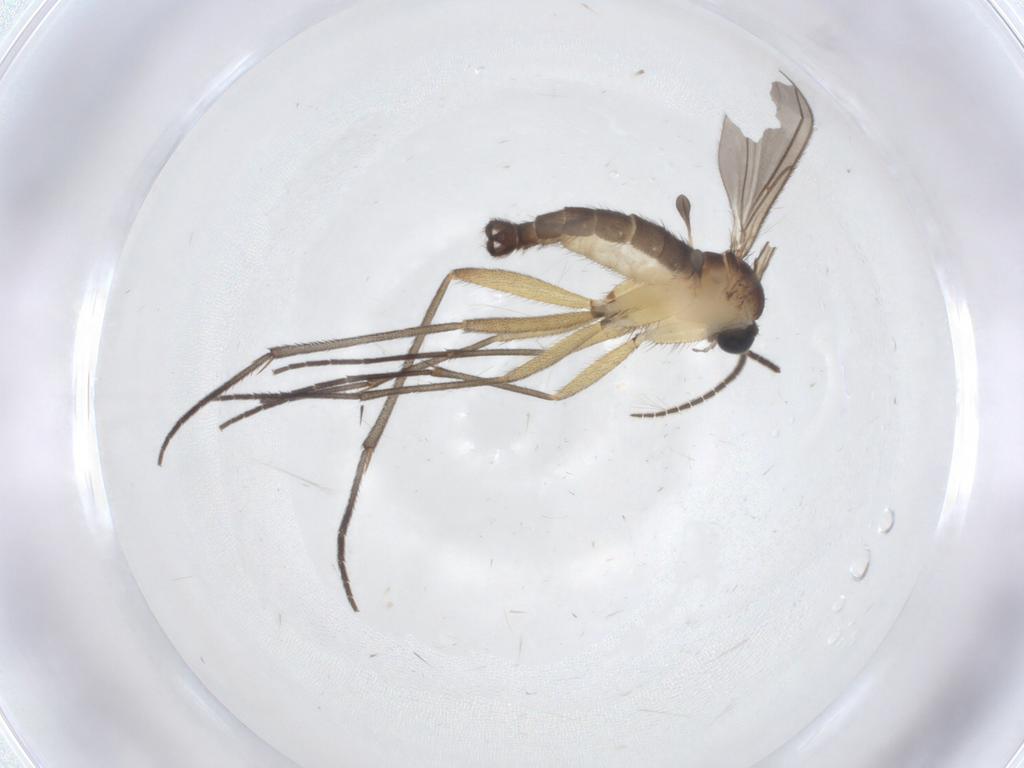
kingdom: Animalia
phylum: Arthropoda
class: Insecta
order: Diptera
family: Sciaridae
